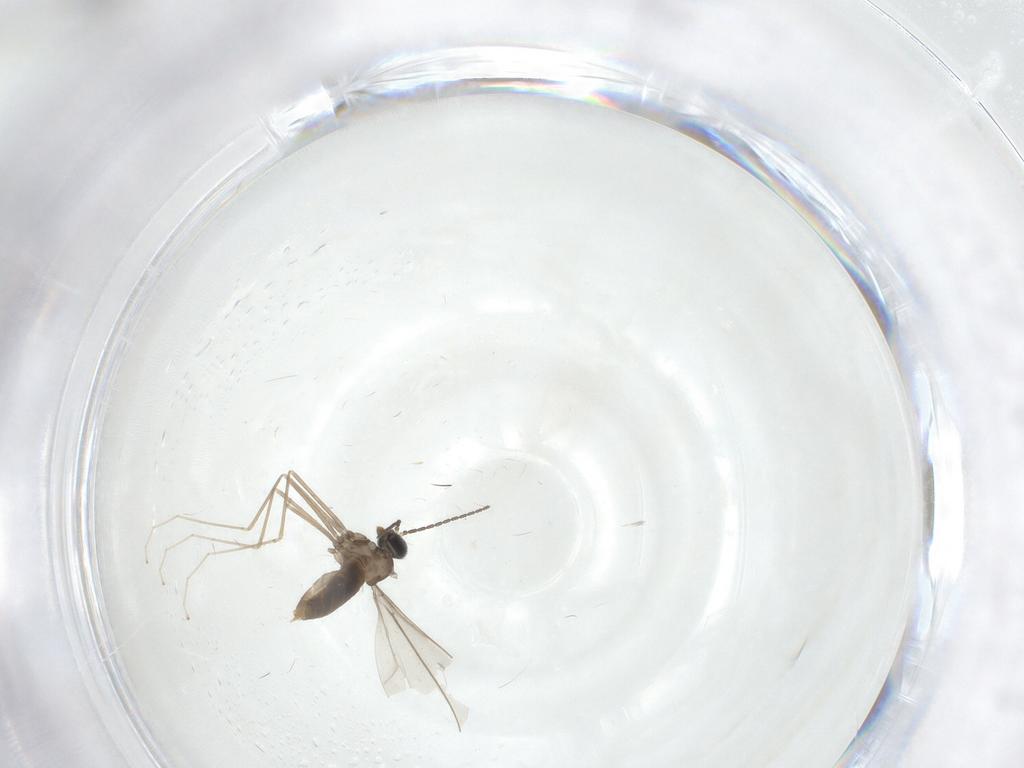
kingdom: Animalia
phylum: Arthropoda
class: Insecta
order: Diptera
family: Cecidomyiidae
